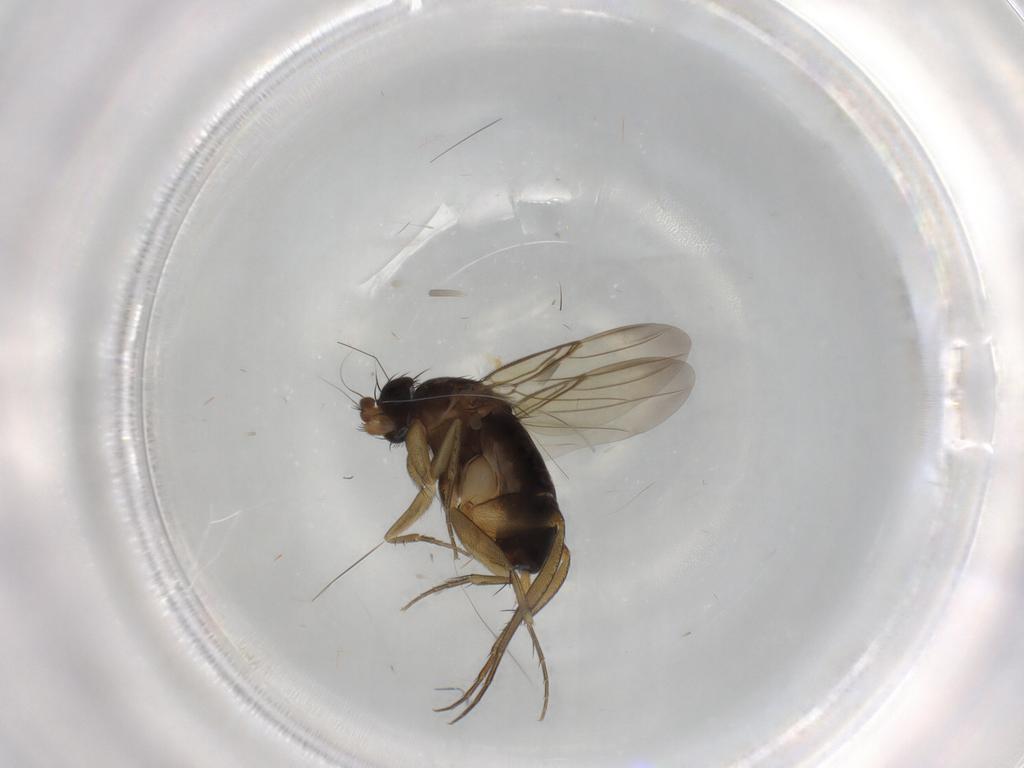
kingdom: Animalia
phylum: Arthropoda
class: Insecta
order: Diptera
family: Phoridae
